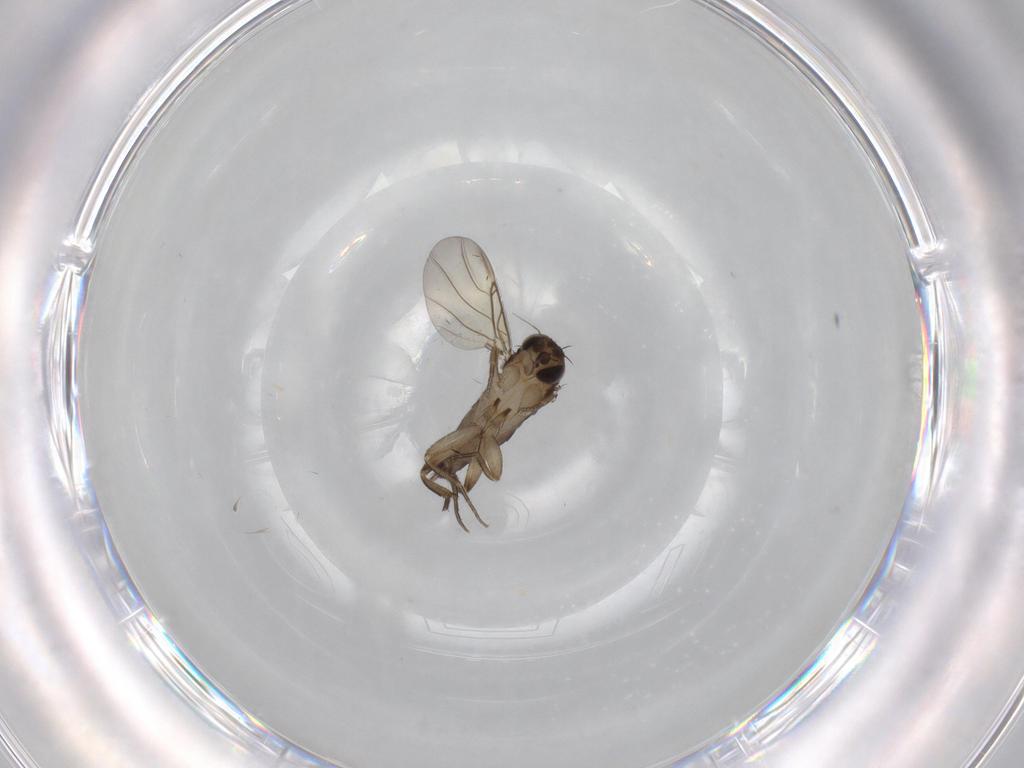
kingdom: Animalia
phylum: Arthropoda
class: Insecta
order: Diptera
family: Phoridae
